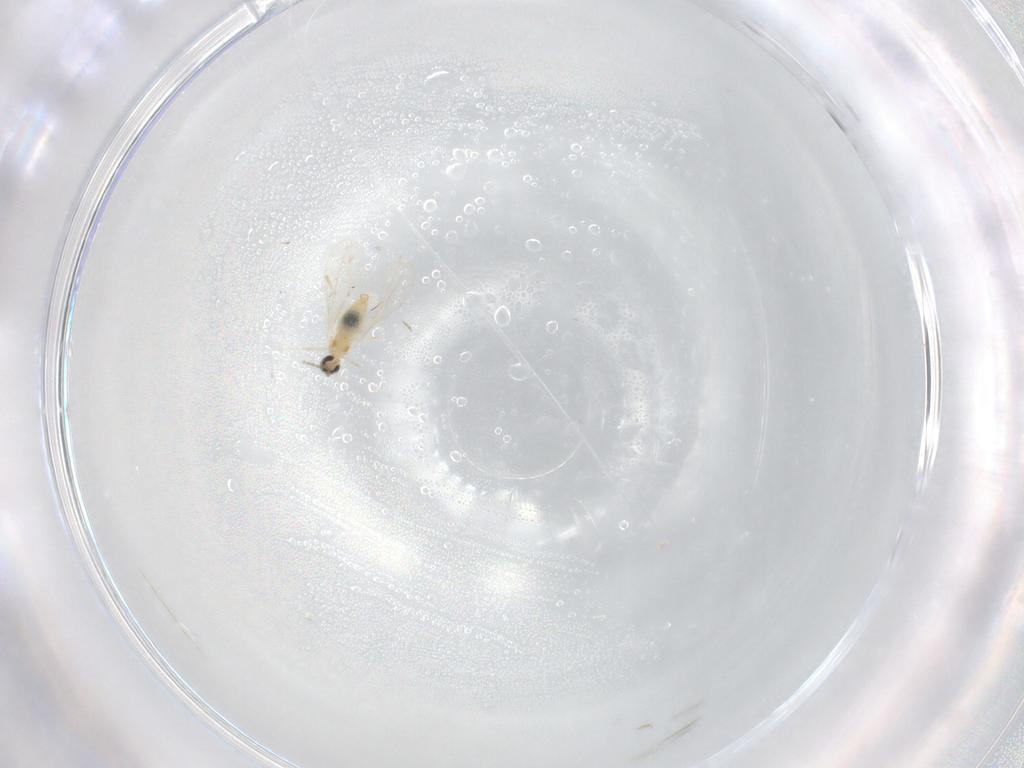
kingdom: Animalia
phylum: Arthropoda
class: Insecta
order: Diptera
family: Cecidomyiidae
